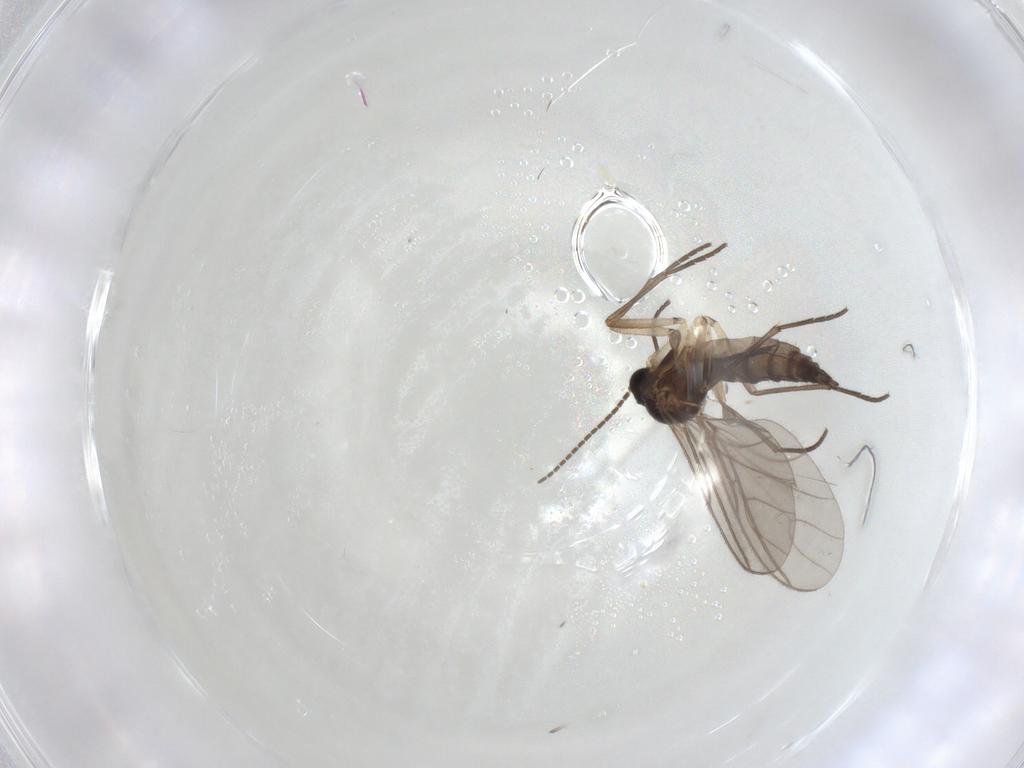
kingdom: Animalia
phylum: Arthropoda
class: Insecta
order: Diptera
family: Sciaridae
